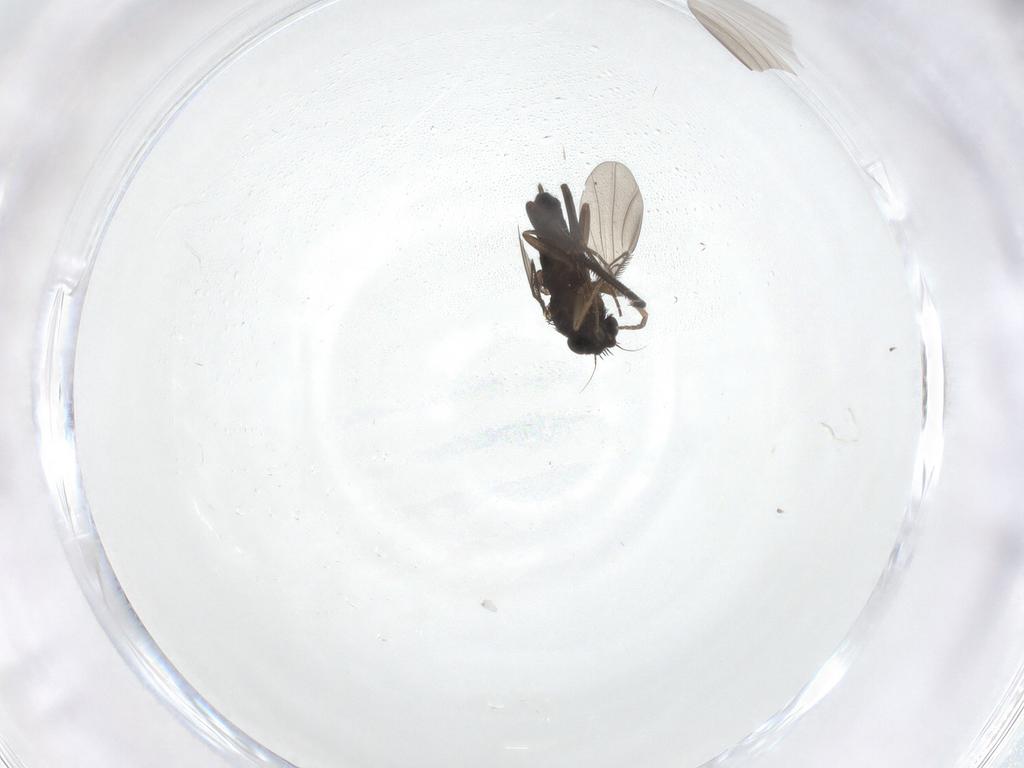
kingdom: Animalia
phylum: Arthropoda
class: Insecta
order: Diptera
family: Phoridae
